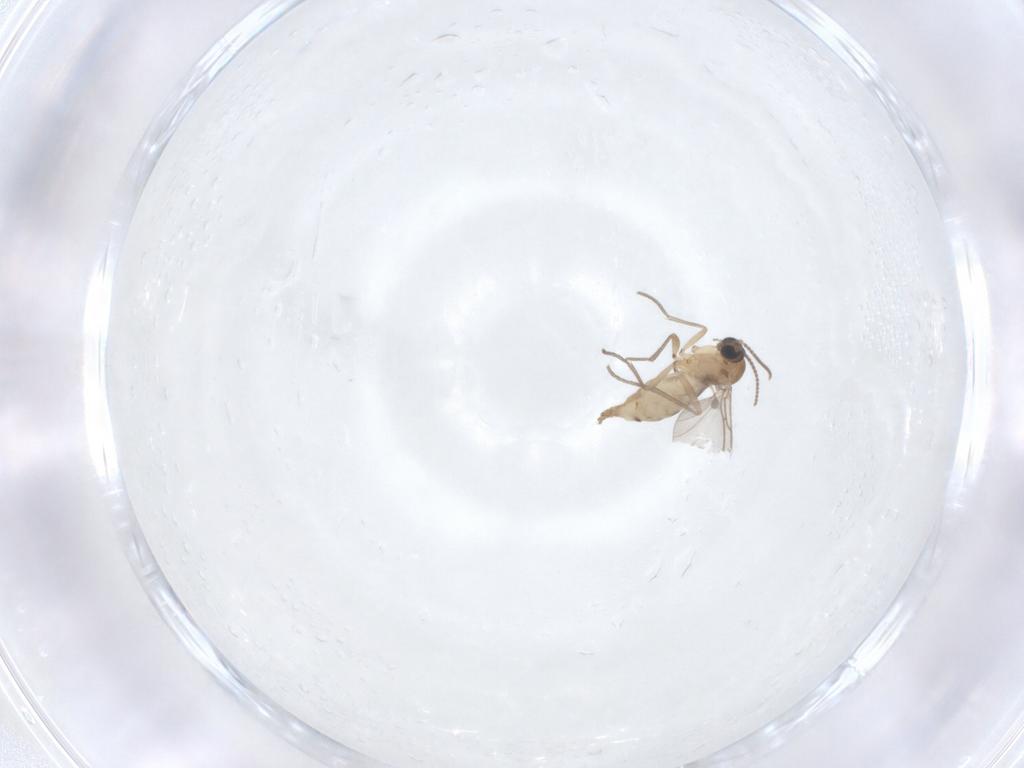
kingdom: Animalia
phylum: Arthropoda
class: Insecta
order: Diptera
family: Sciaridae
